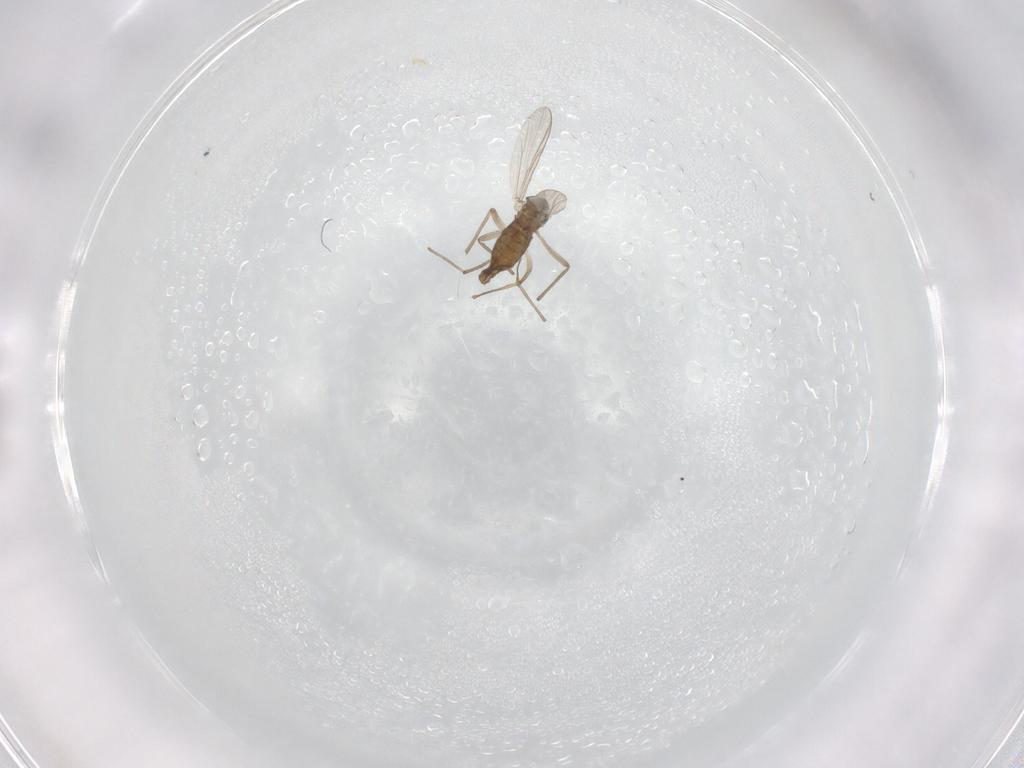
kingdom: Animalia
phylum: Arthropoda
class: Insecta
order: Diptera
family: Chironomidae
